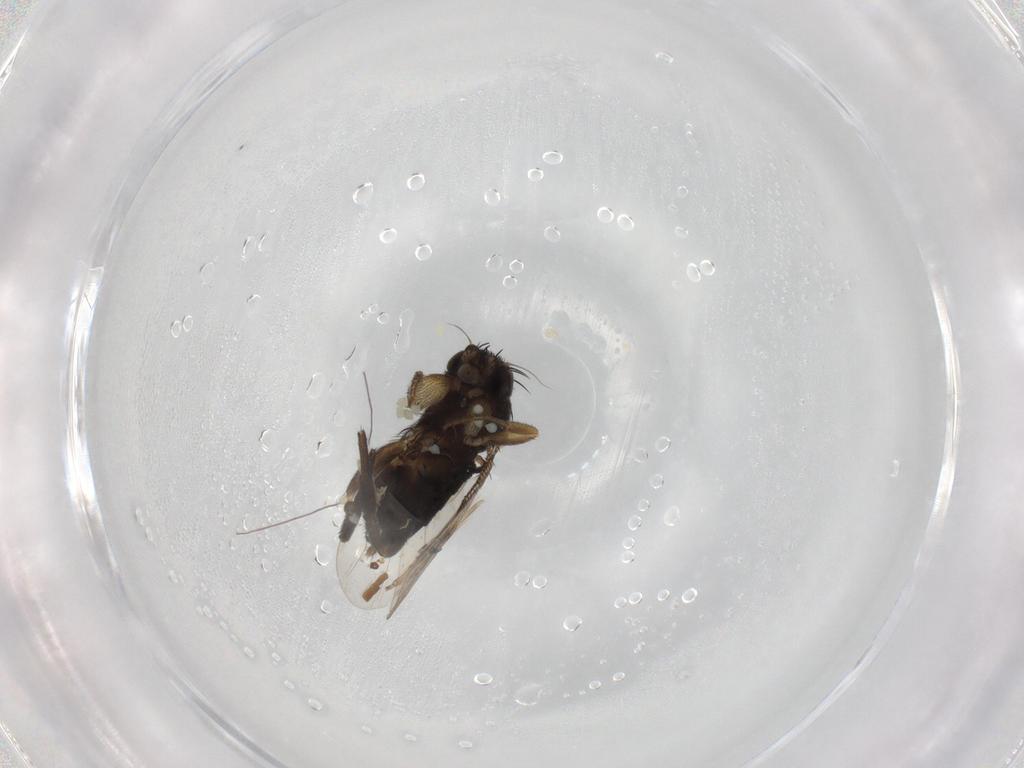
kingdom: Animalia
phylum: Arthropoda
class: Insecta
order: Diptera
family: Phoridae
